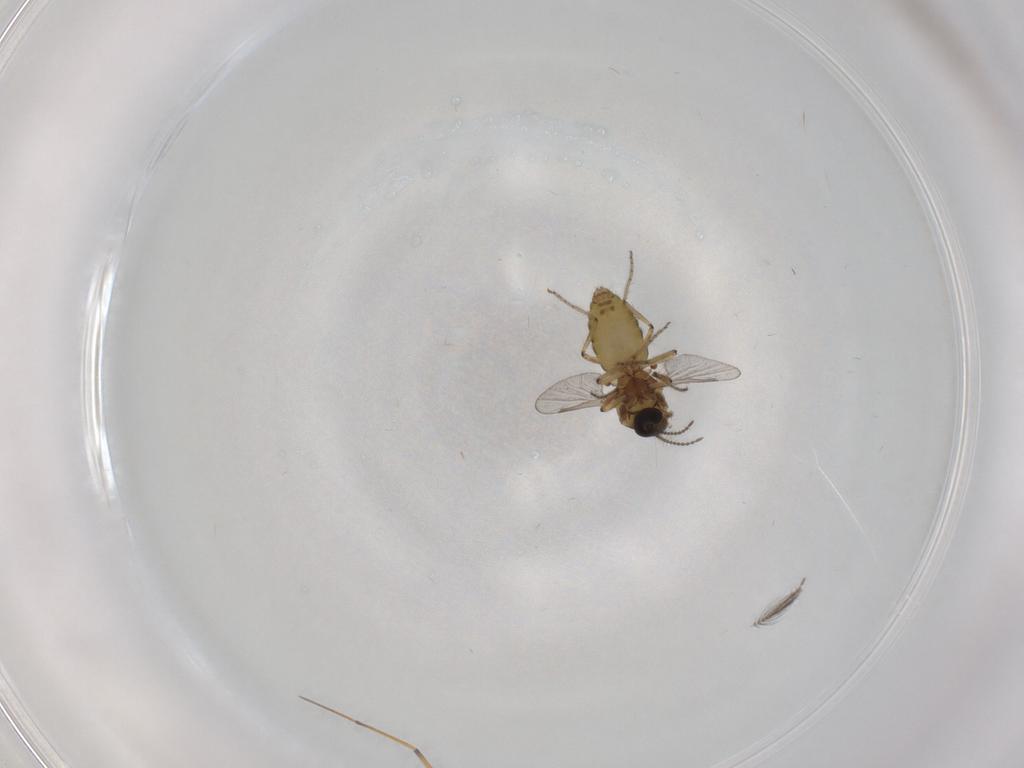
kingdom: Animalia
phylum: Arthropoda
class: Insecta
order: Diptera
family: Ceratopogonidae
